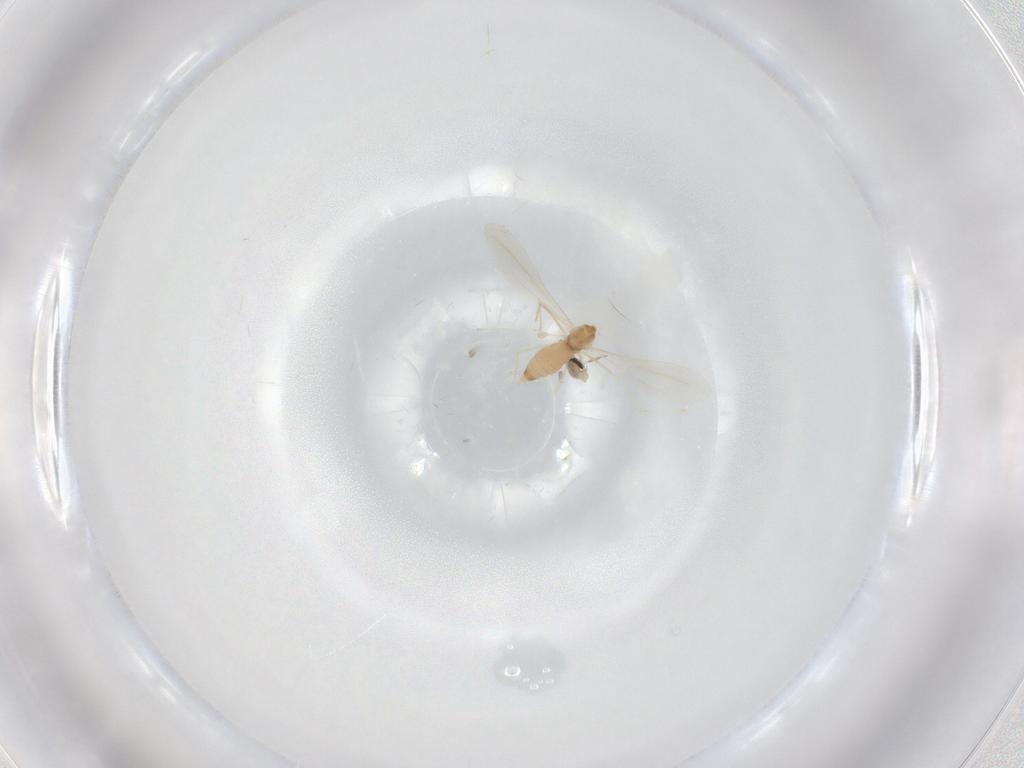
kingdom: Animalia
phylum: Arthropoda
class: Insecta
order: Diptera
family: Cecidomyiidae
